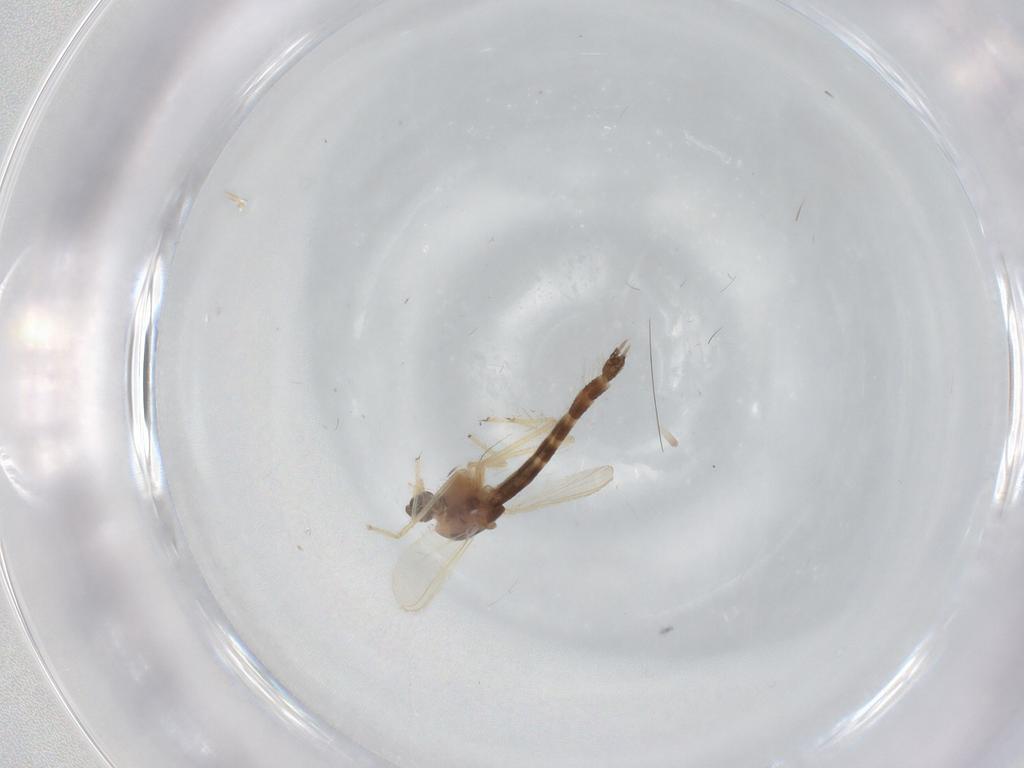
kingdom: Animalia
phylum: Arthropoda
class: Insecta
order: Diptera
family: Chironomidae
